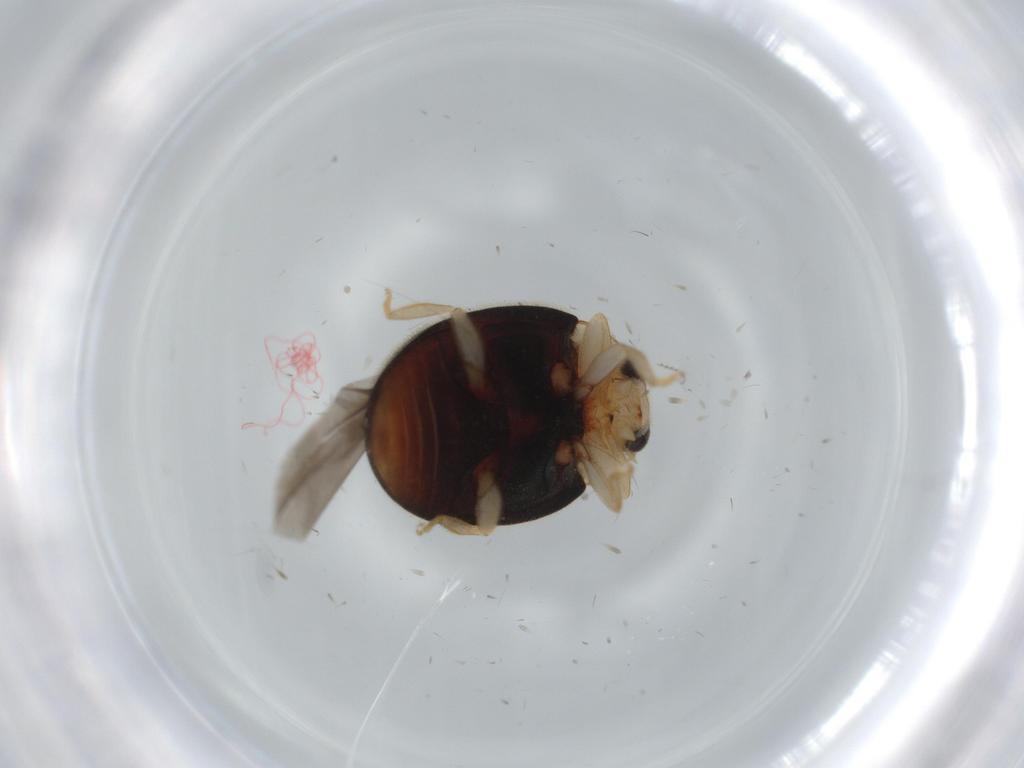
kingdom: Animalia
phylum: Arthropoda
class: Insecta
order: Coleoptera
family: Coccinellidae
